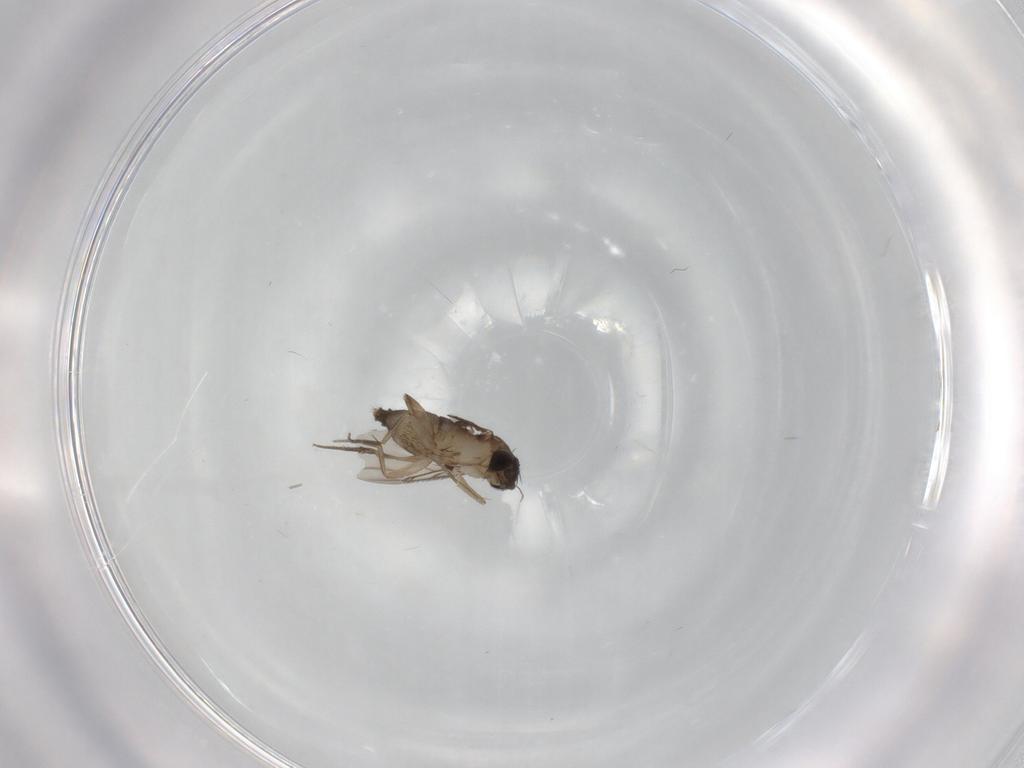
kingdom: Animalia
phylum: Arthropoda
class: Insecta
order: Diptera
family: Phoridae
